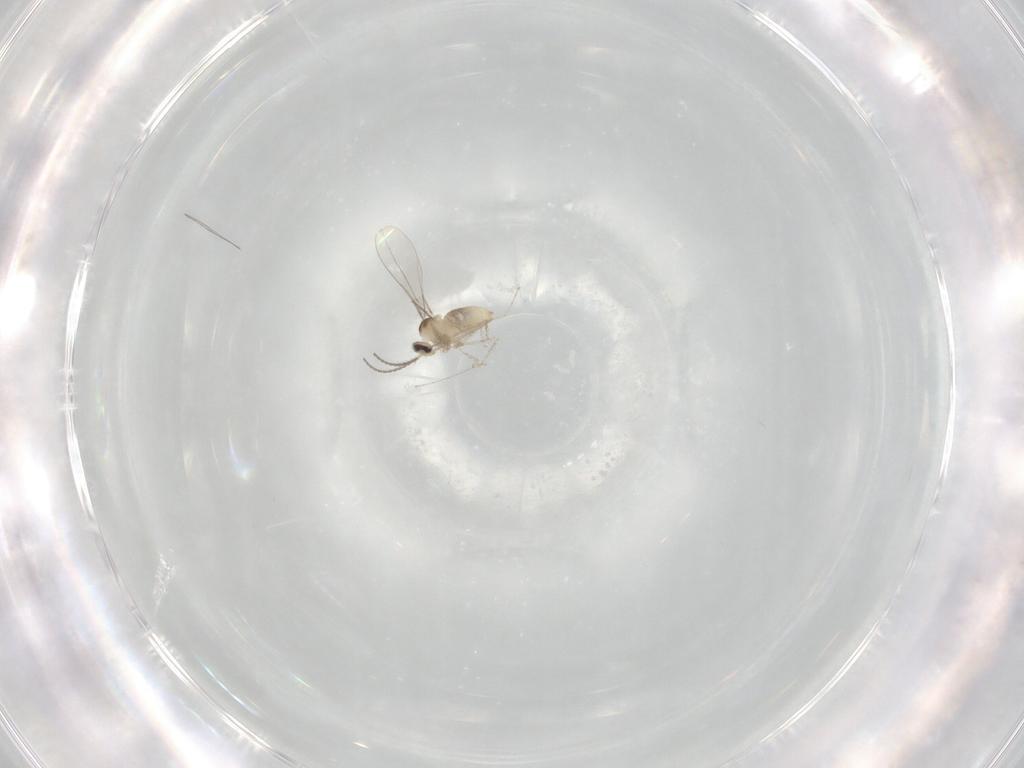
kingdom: Animalia
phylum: Arthropoda
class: Insecta
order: Diptera
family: Cecidomyiidae
